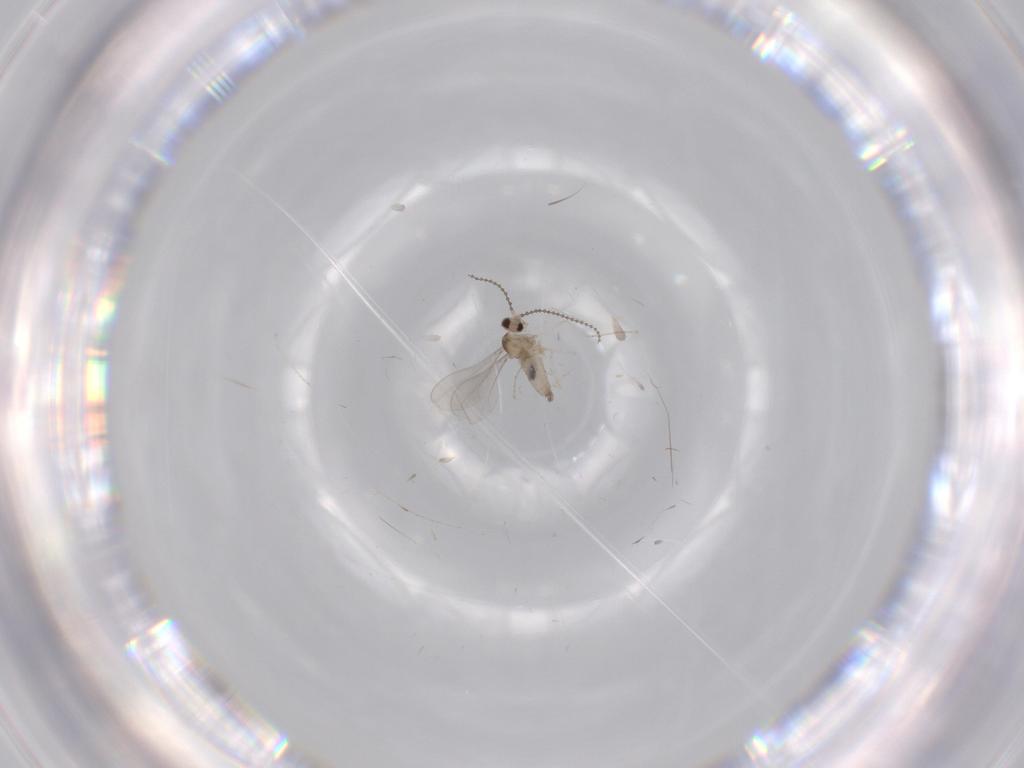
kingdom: Animalia
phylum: Arthropoda
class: Insecta
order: Diptera
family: Cecidomyiidae
